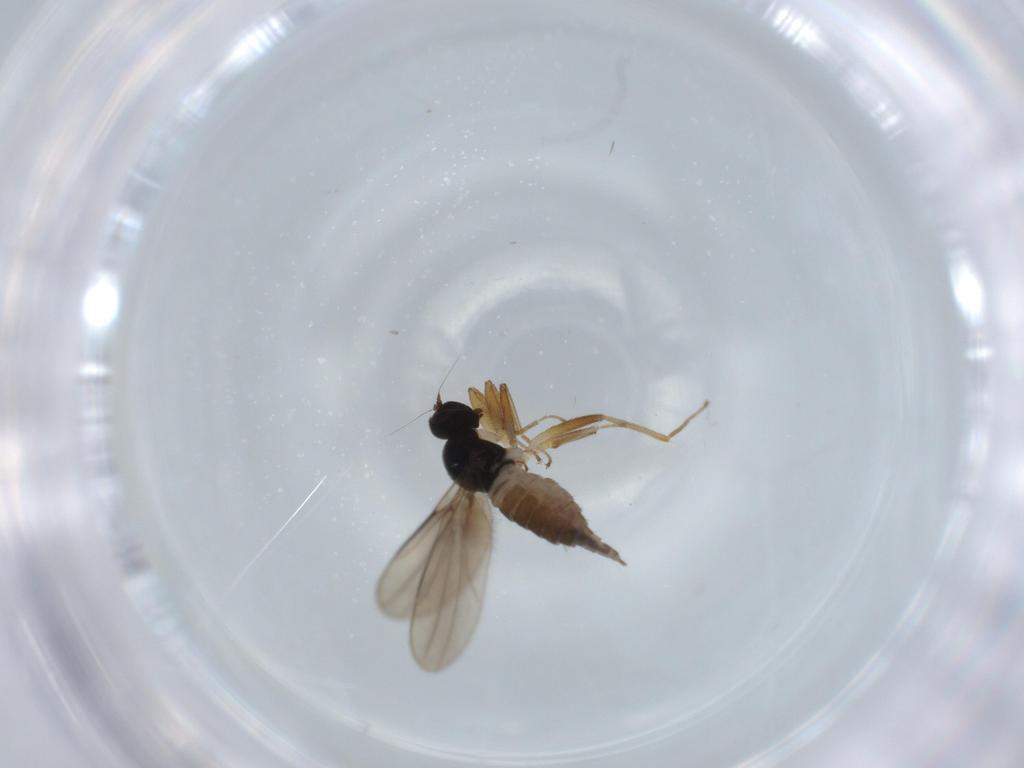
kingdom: Animalia
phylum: Arthropoda
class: Insecta
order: Diptera
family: Hybotidae
